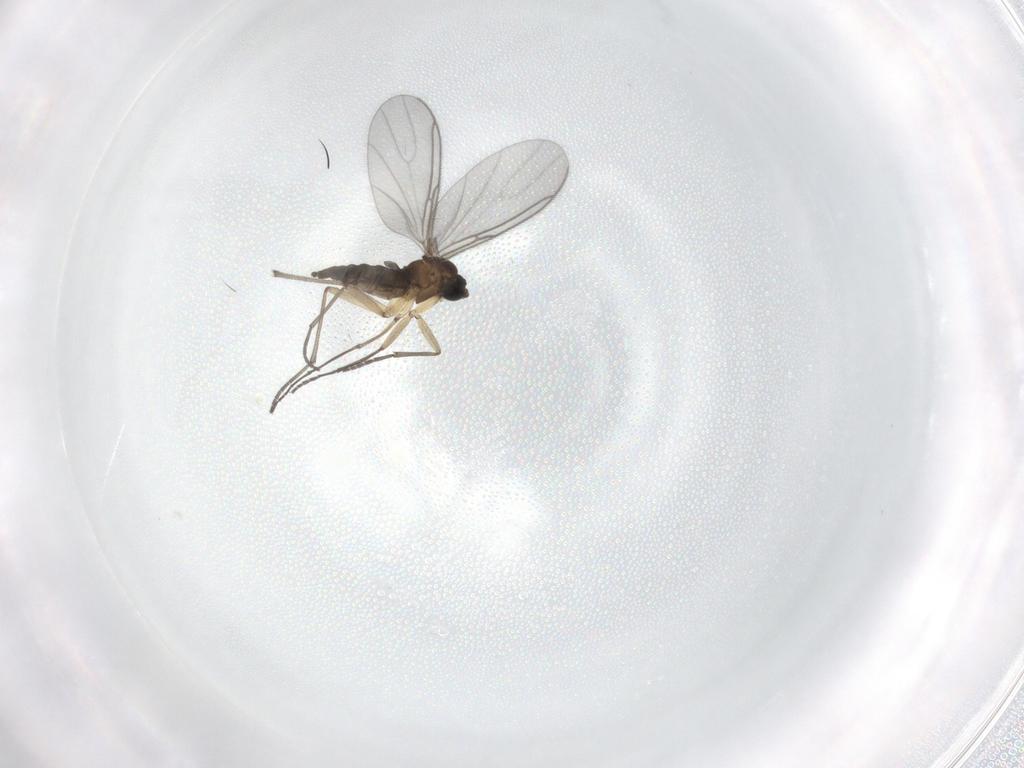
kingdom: Animalia
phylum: Arthropoda
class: Insecta
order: Diptera
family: Sciaridae
